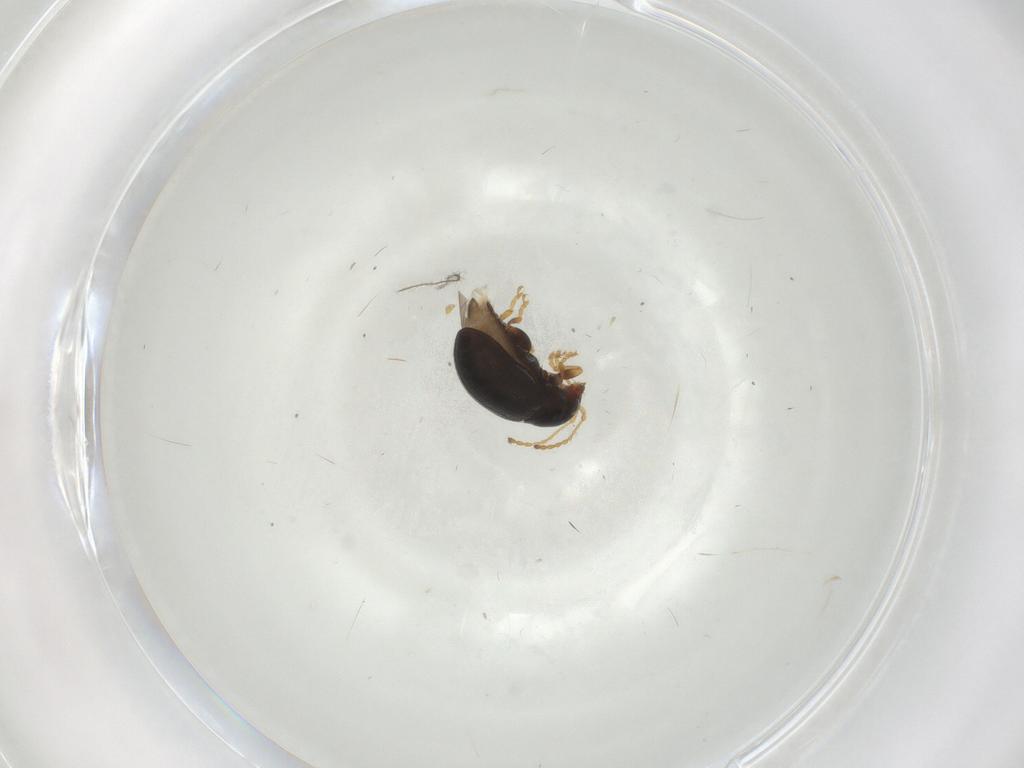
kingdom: Animalia
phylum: Arthropoda
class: Insecta
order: Coleoptera
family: Chrysomelidae
